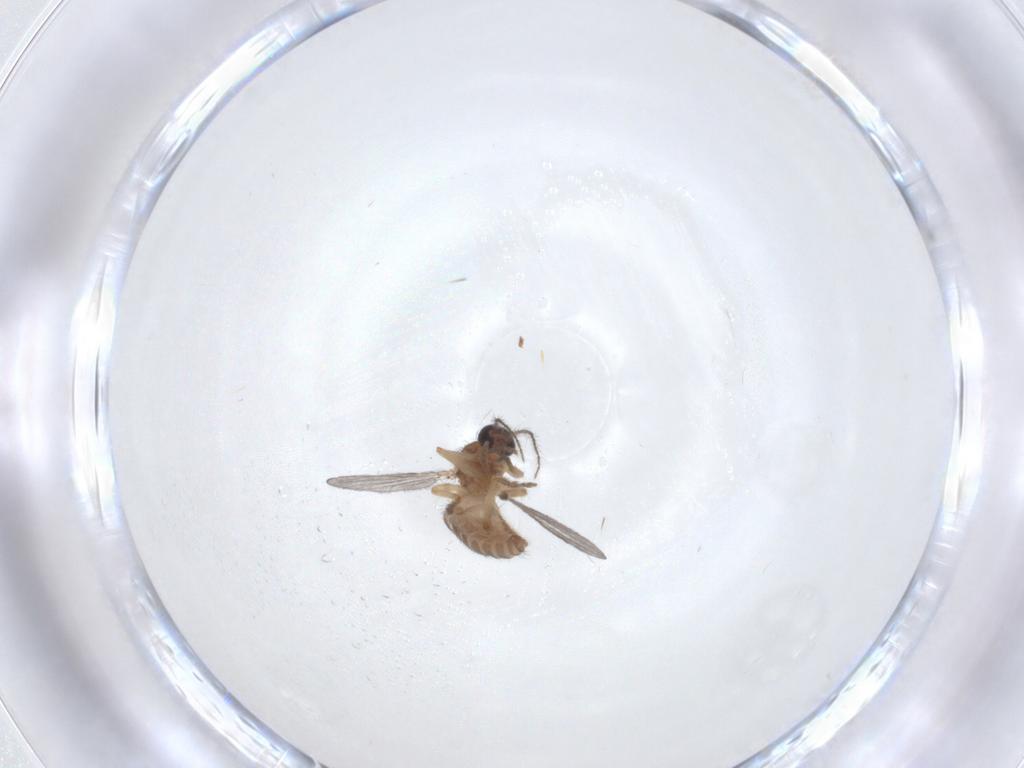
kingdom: Animalia
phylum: Arthropoda
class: Insecta
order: Diptera
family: Ceratopogonidae
